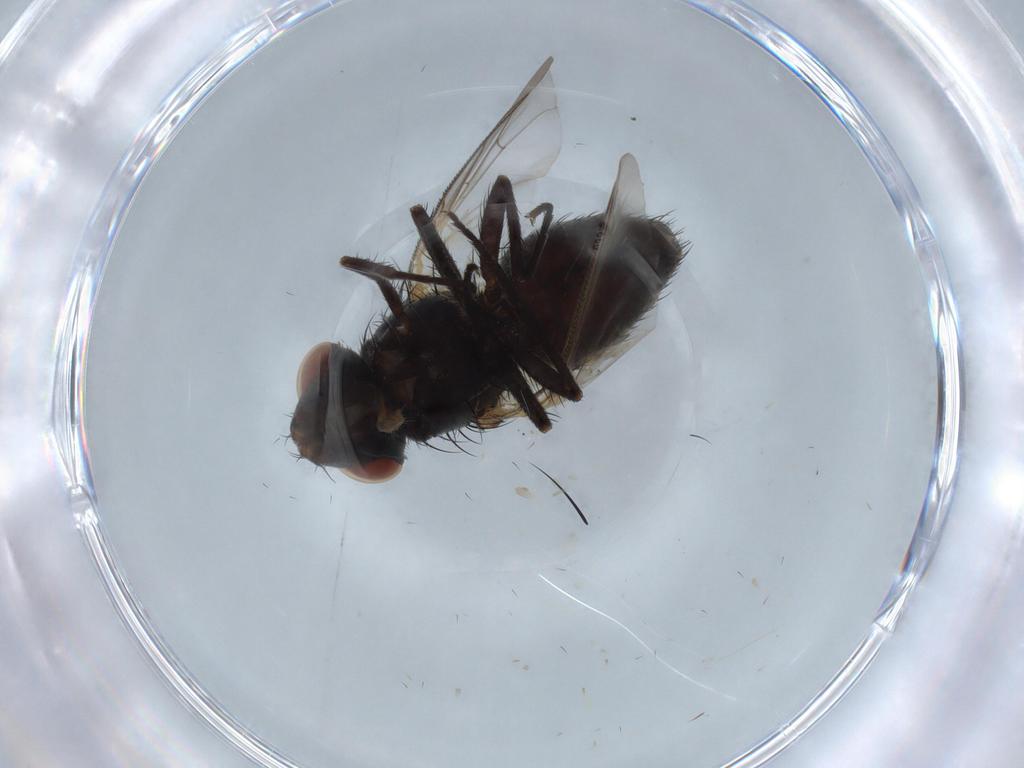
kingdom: Animalia
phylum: Arthropoda
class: Insecta
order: Diptera
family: Sarcophagidae
